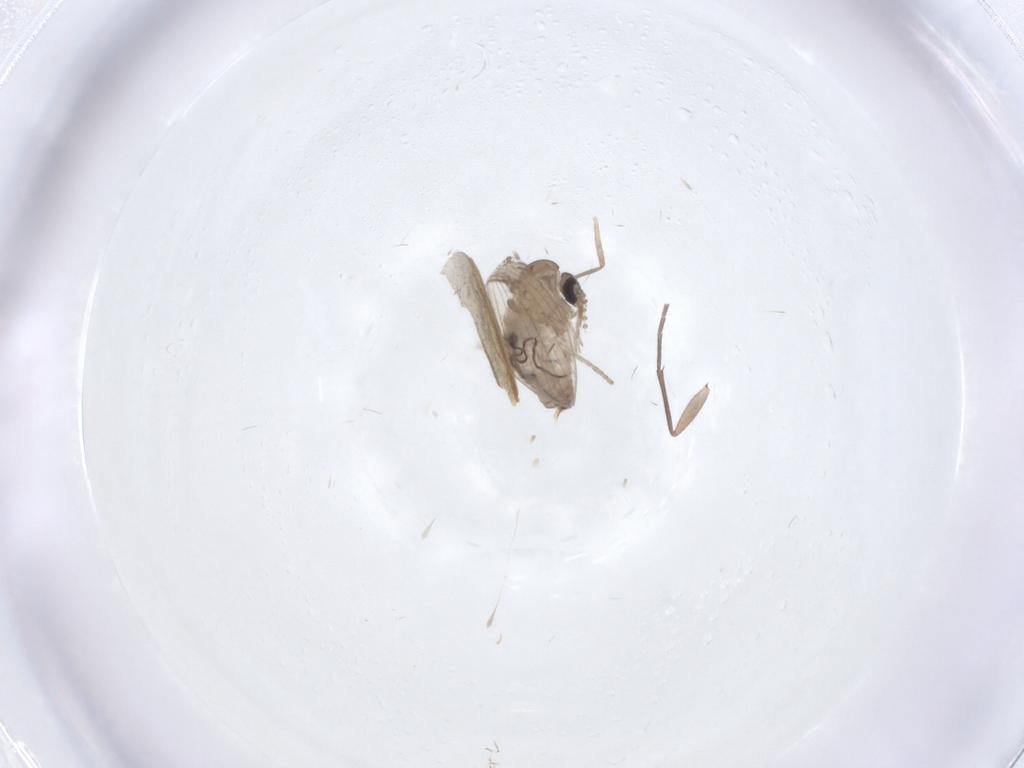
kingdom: Animalia
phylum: Arthropoda
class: Insecta
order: Diptera
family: Psychodidae
